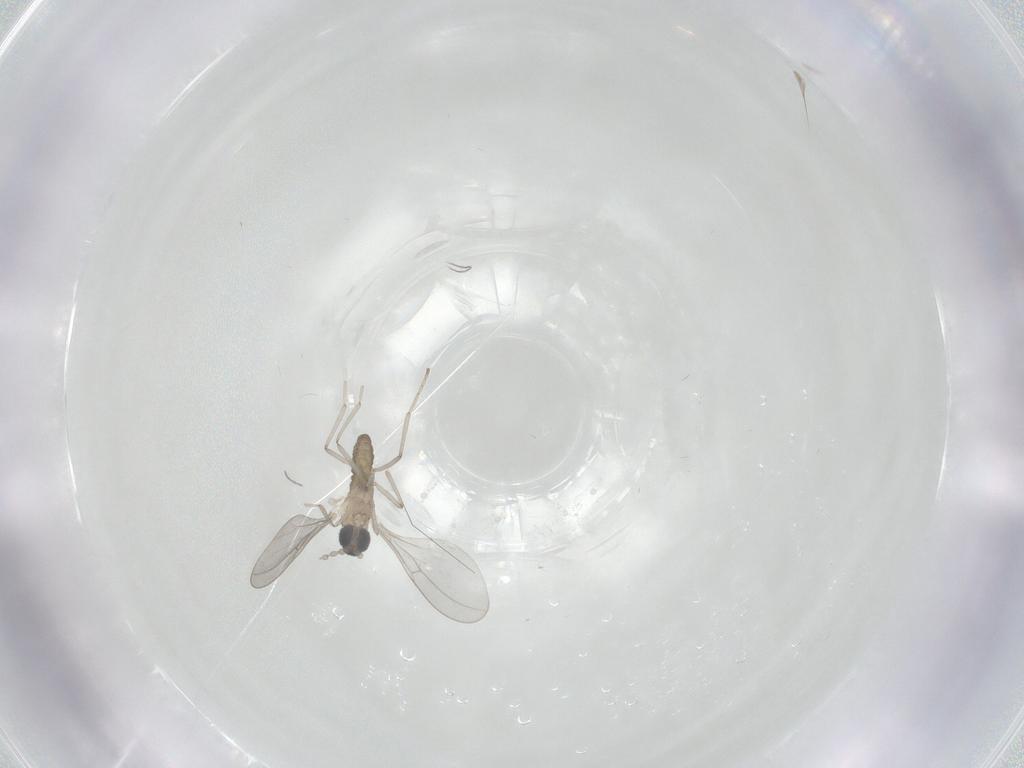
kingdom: Animalia
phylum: Arthropoda
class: Insecta
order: Diptera
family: Cecidomyiidae
